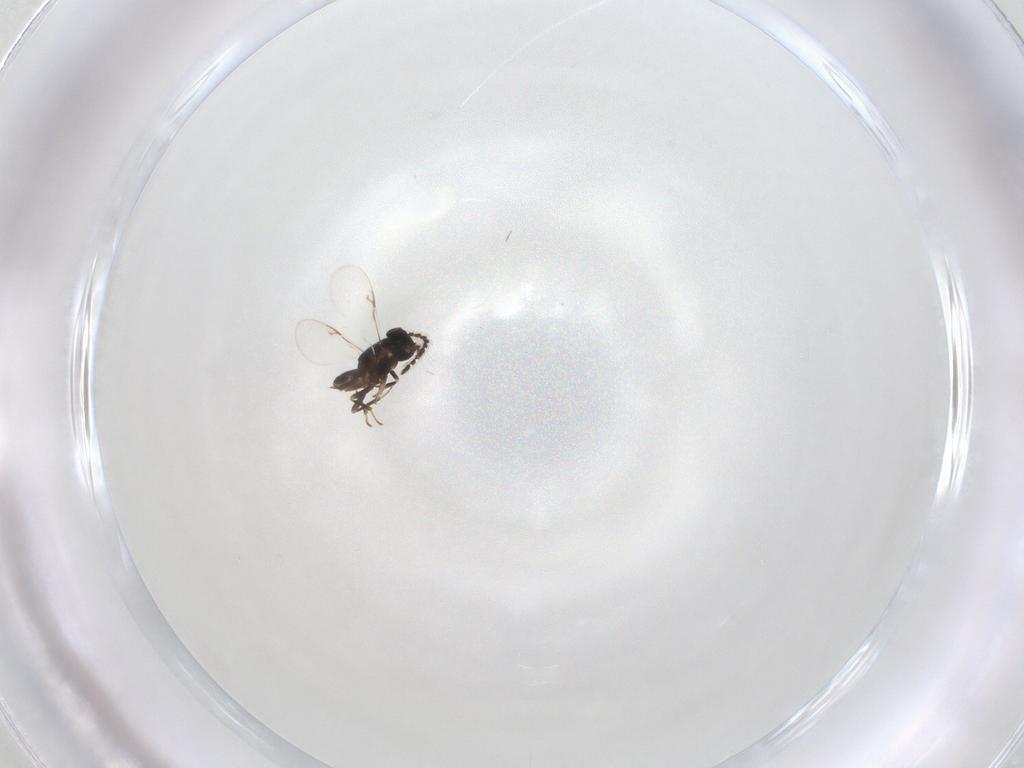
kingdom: Animalia
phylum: Arthropoda
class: Insecta
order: Hymenoptera
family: Encyrtidae
